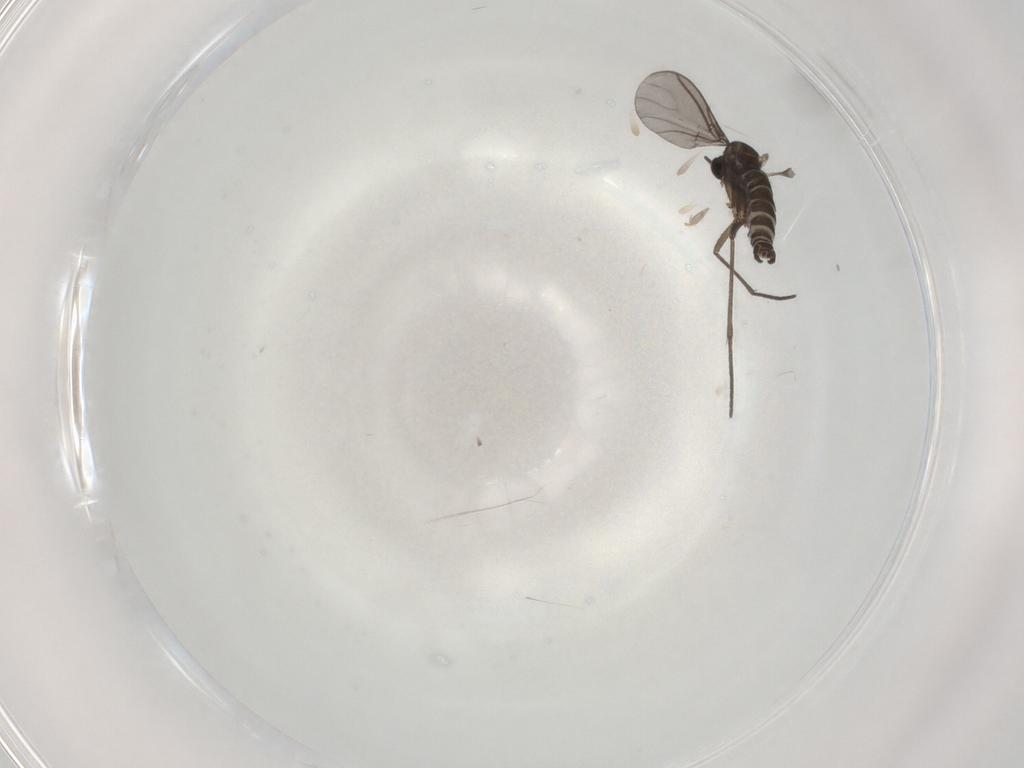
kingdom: Animalia
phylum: Arthropoda
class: Insecta
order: Diptera
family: Sciaridae
